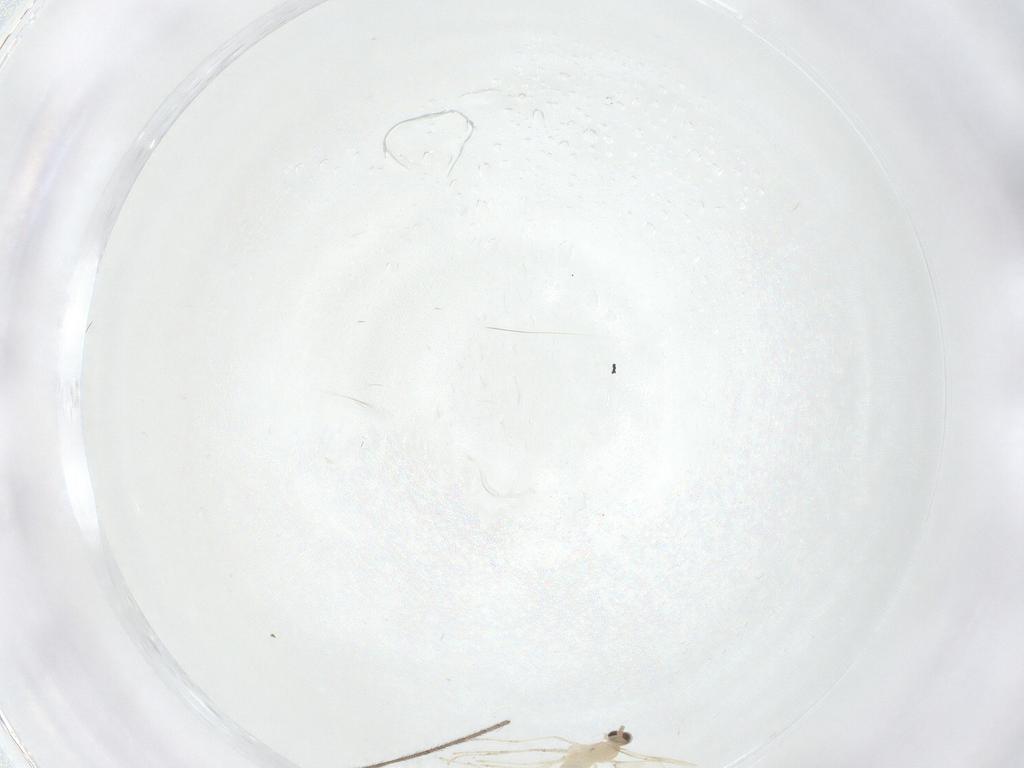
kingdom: Animalia
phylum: Arthropoda
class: Insecta
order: Diptera
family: Cecidomyiidae
